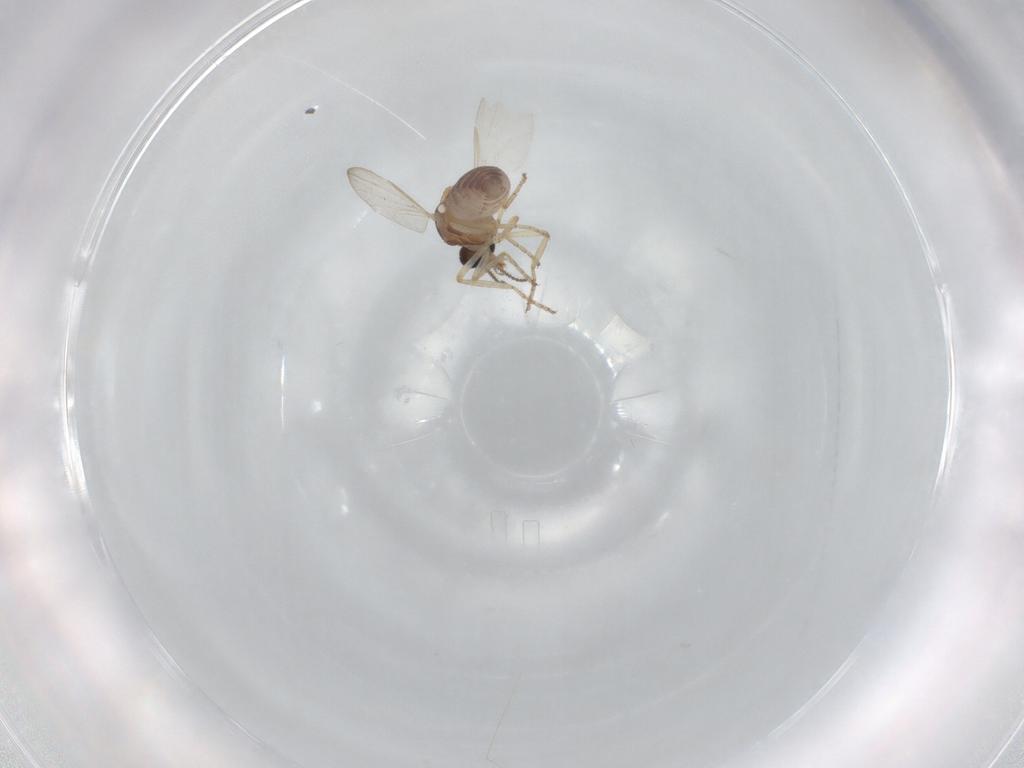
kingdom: Animalia
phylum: Arthropoda
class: Insecta
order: Diptera
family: Ceratopogonidae
